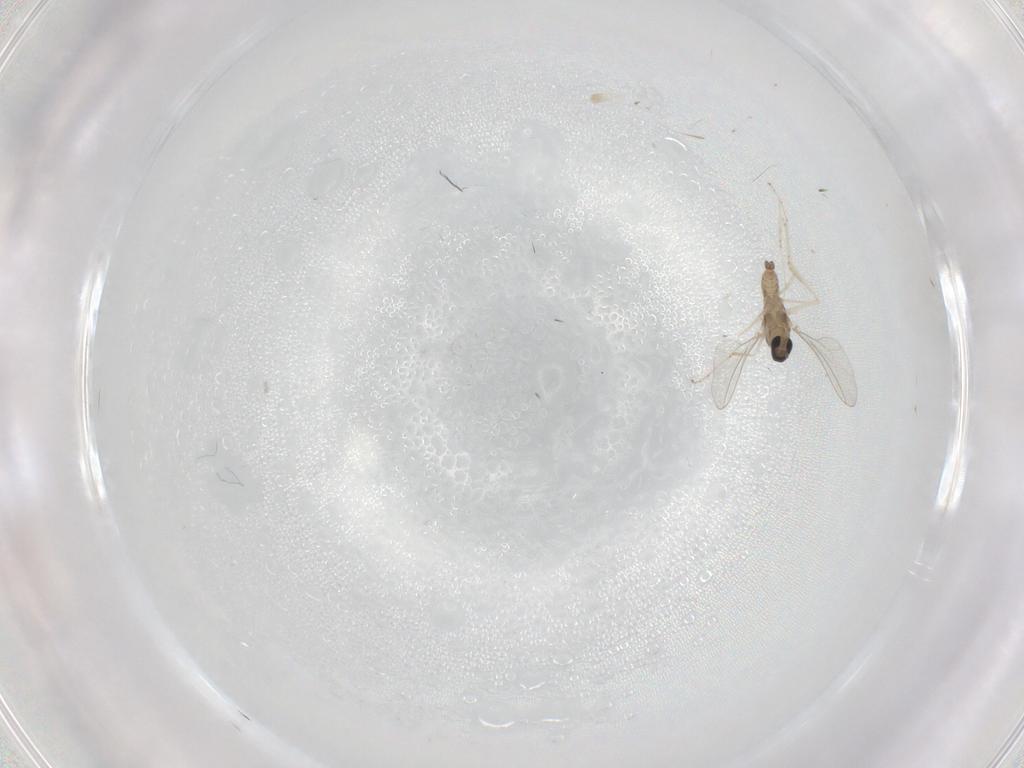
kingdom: Animalia
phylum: Arthropoda
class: Insecta
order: Diptera
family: Cecidomyiidae
